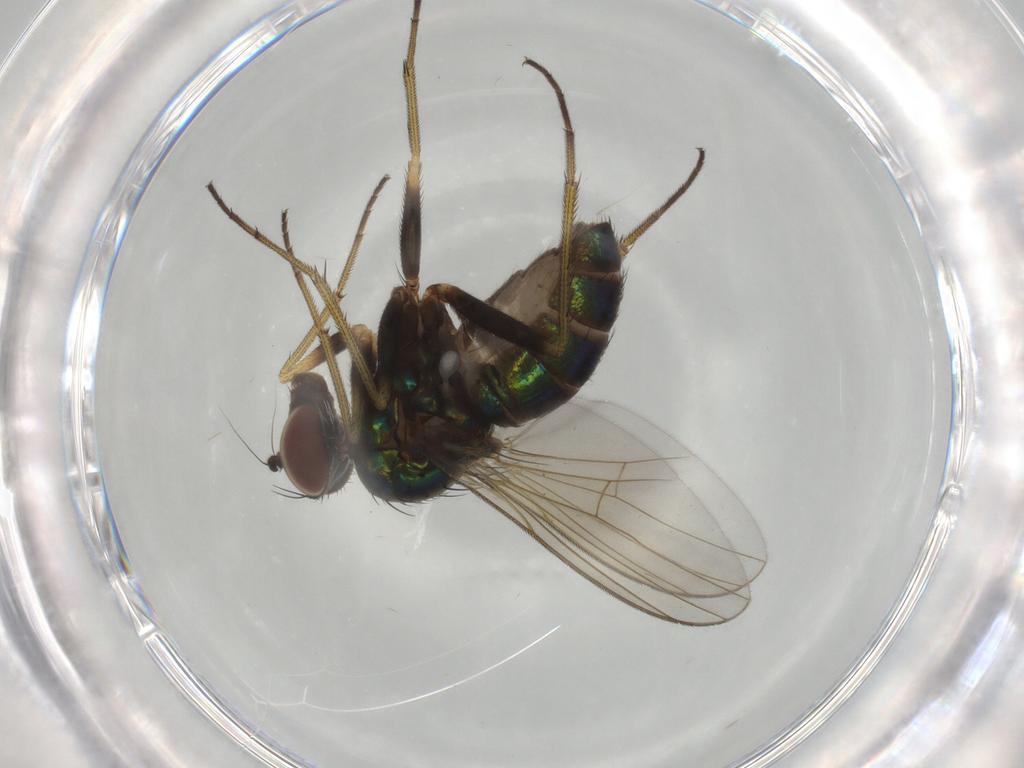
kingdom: Animalia
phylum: Arthropoda
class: Insecta
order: Diptera
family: Dolichopodidae
